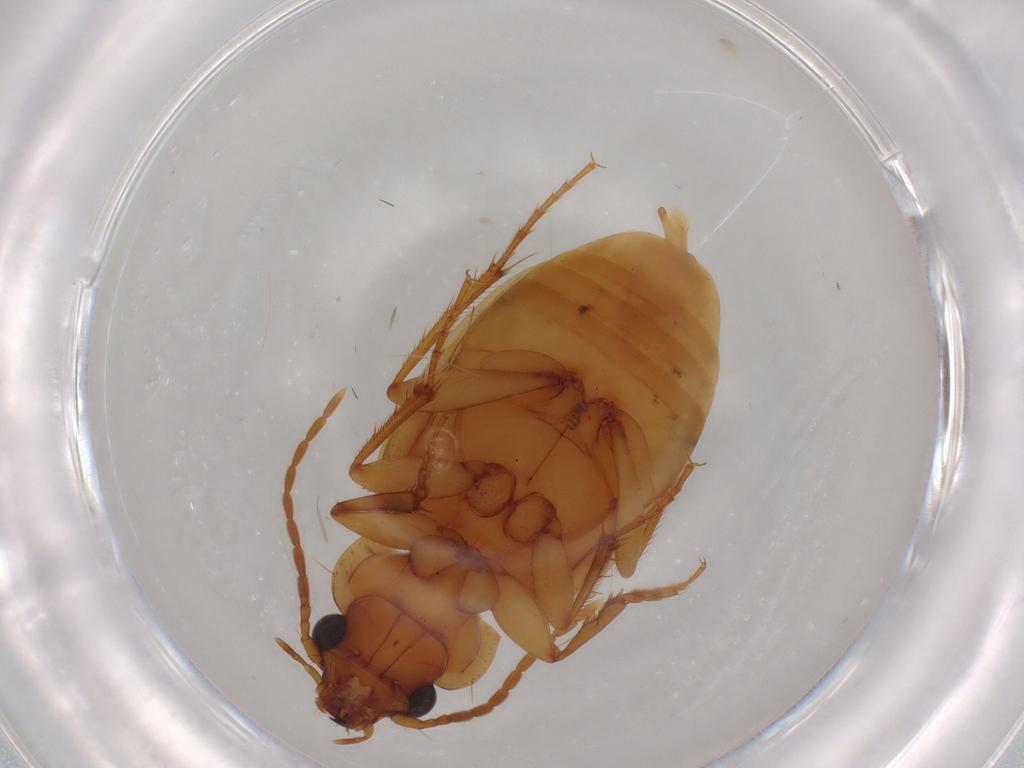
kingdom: Animalia
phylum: Arthropoda
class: Insecta
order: Coleoptera
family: Carabidae
